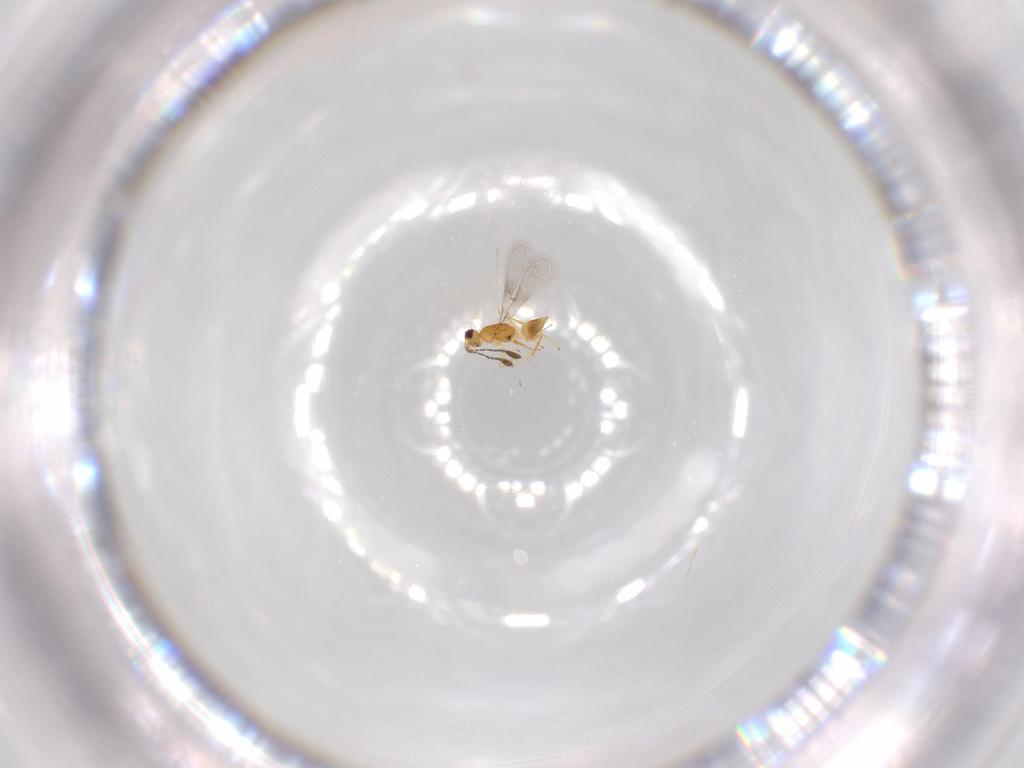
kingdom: Animalia
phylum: Arthropoda
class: Insecta
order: Hymenoptera
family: Mymaridae
